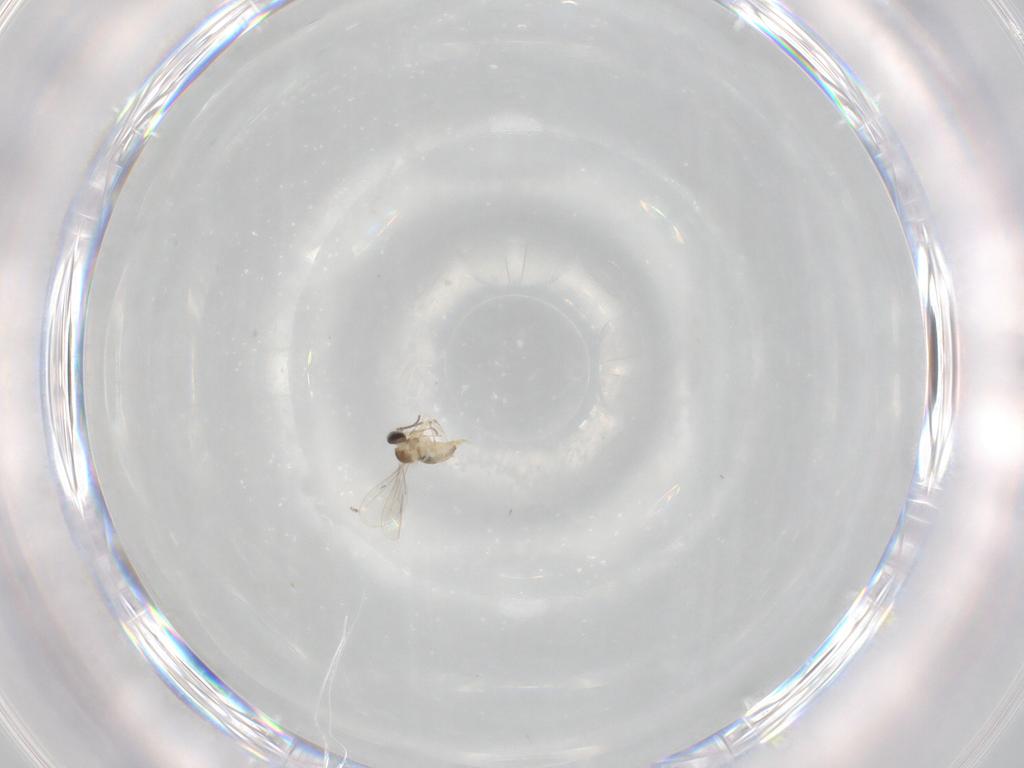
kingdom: Animalia
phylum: Arthropoda
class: Insecta
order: Diptera
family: Cecidomyiidae
